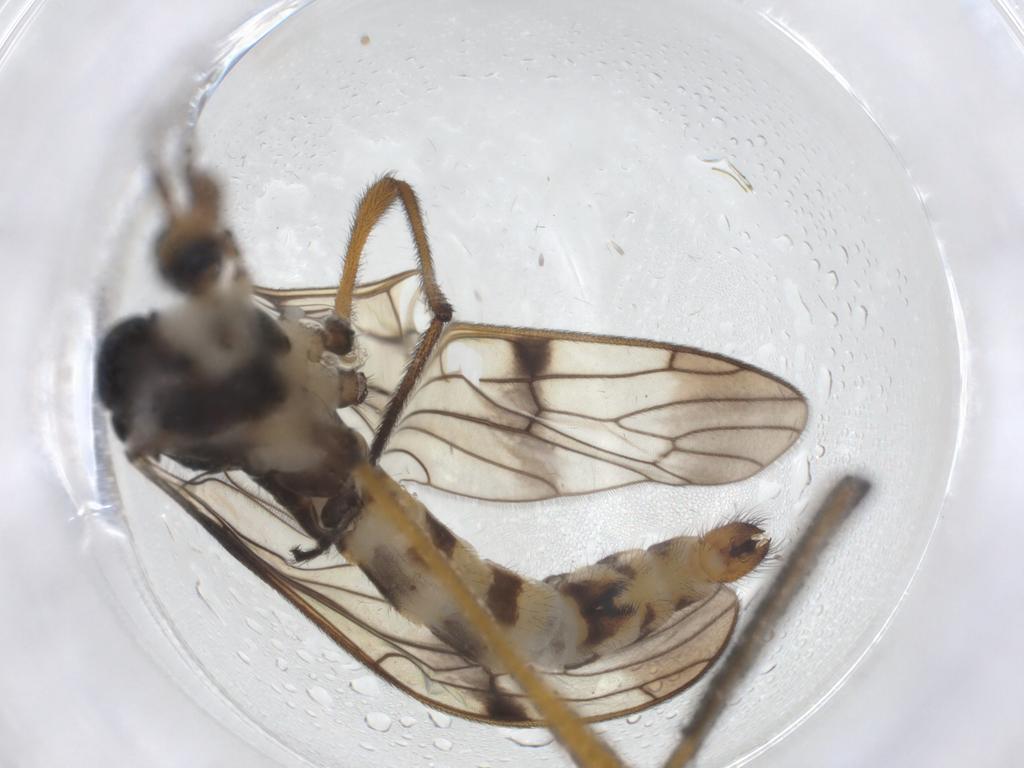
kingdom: Animalia
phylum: Arthropoda
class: Insecta
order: Diptera
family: Limoniidae
